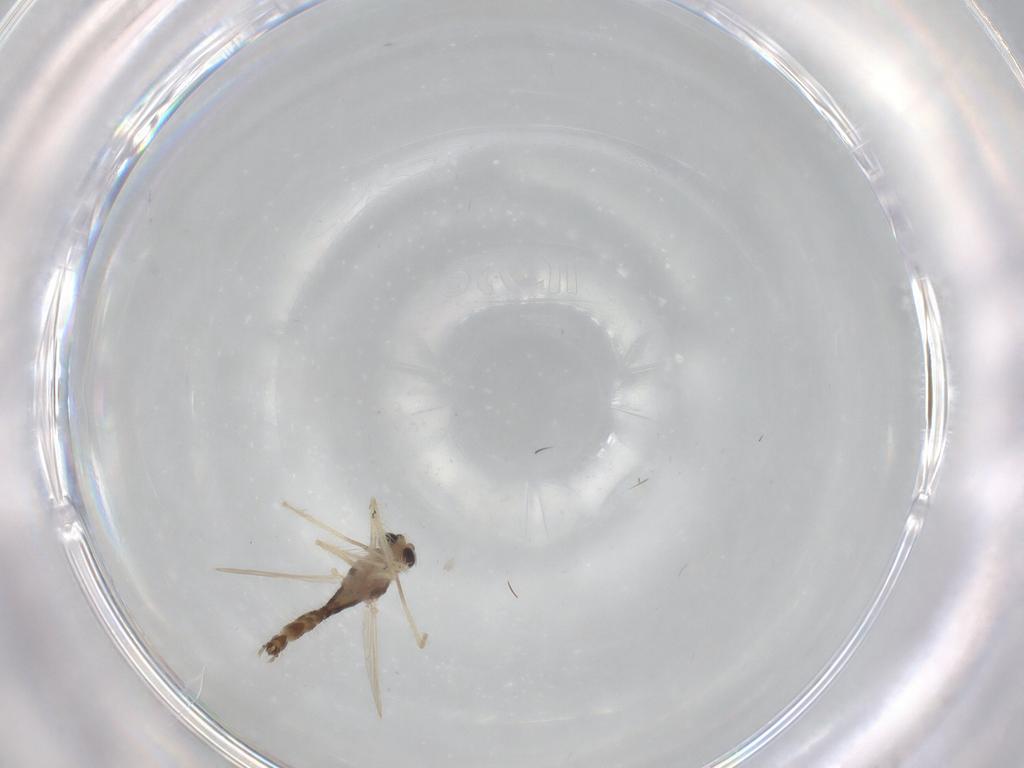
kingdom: Animalia
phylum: Arthropoda
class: Insecta
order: Diptera
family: Chironomidae
